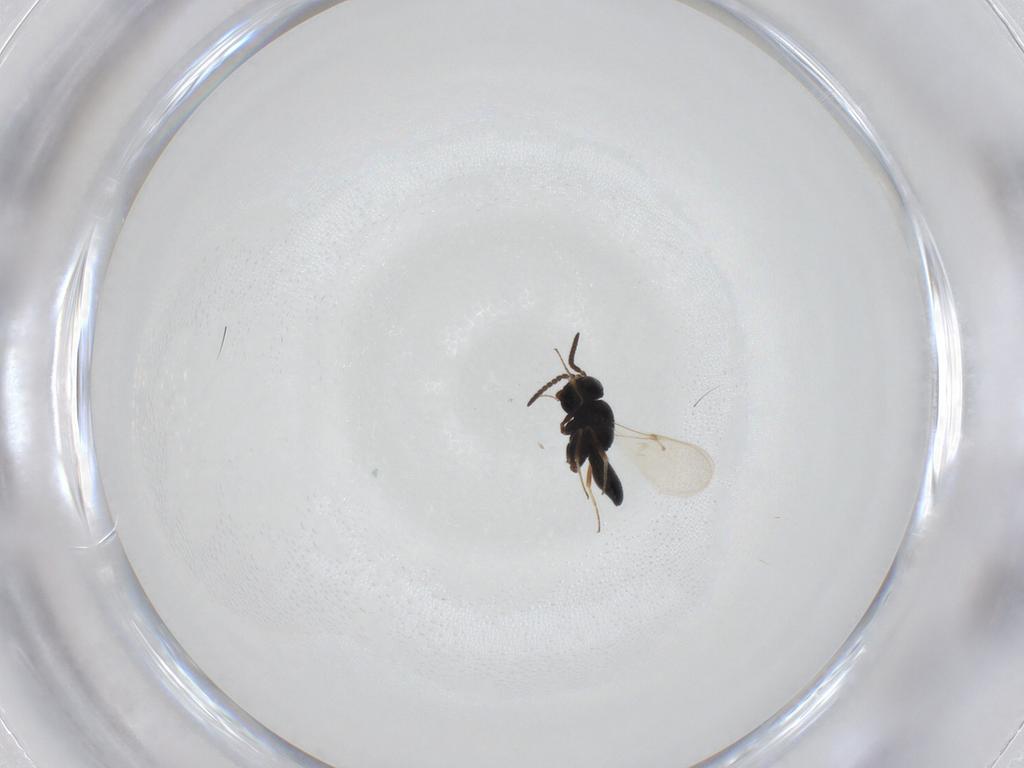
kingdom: Animalia
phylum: Arthropoda
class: Insecta
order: Hymenoptera
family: Scelionidae
